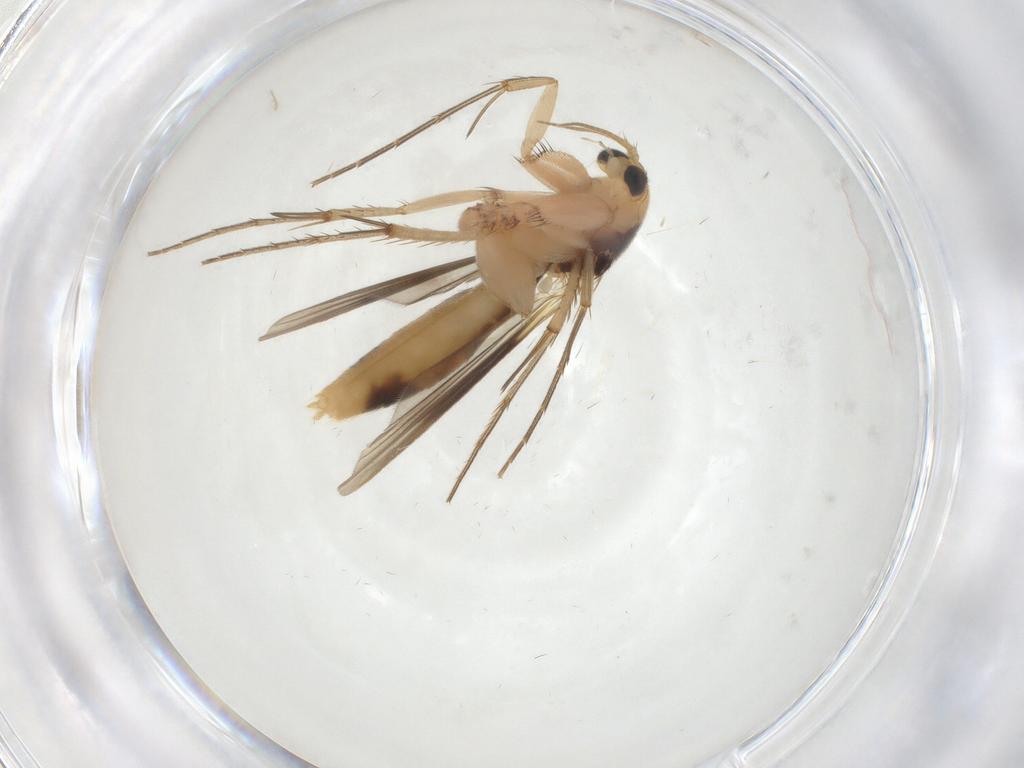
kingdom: Animalia
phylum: Arthropoda
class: Insecta
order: Diptera
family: Mycetophilidae
